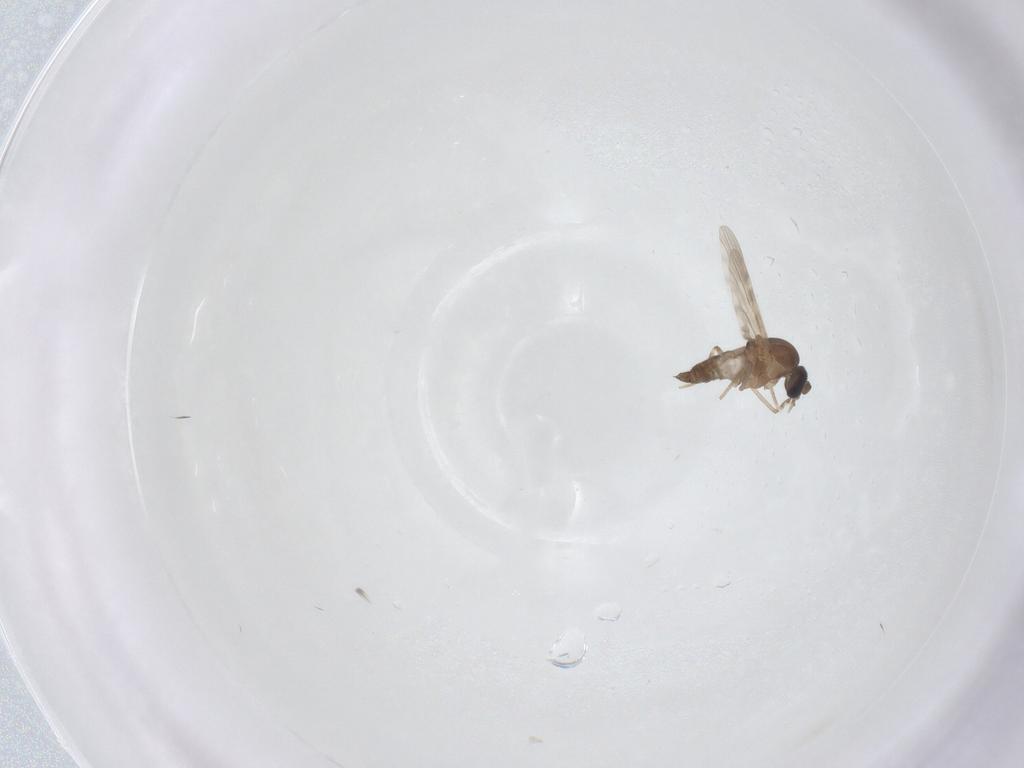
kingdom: Animalia
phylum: Arthropoda
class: Insecta
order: Diptera
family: Ceratopogonidae
